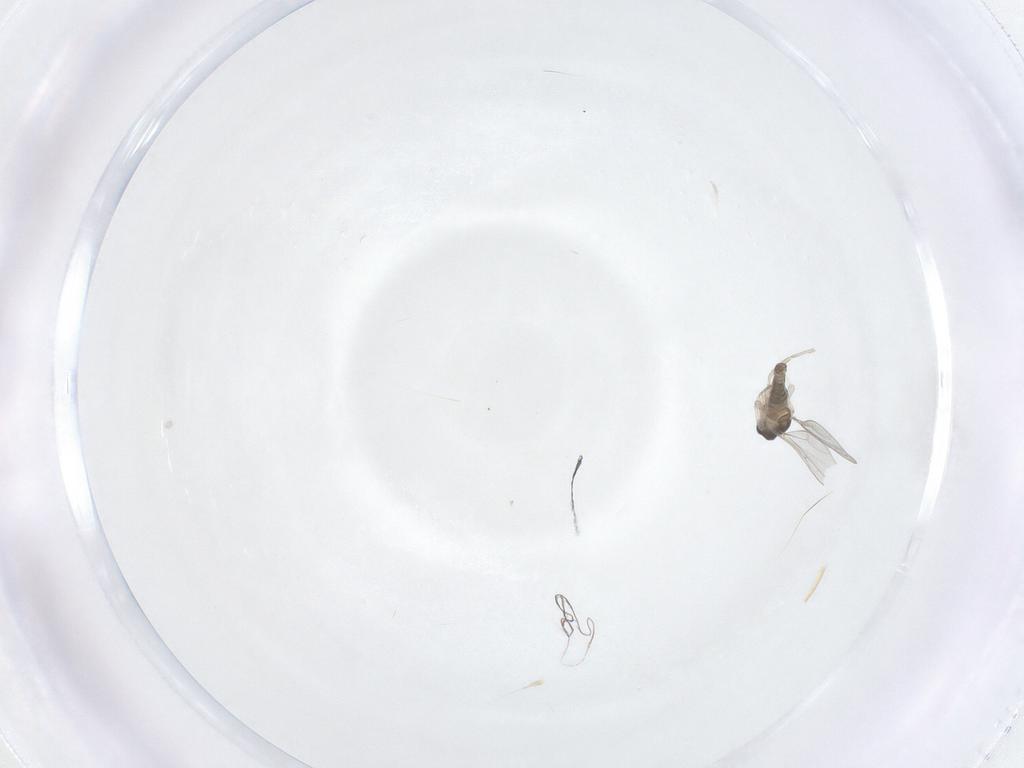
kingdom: Animalia
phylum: Arthropoda
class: Insecta
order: Diptera
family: Cecidomyiidae
